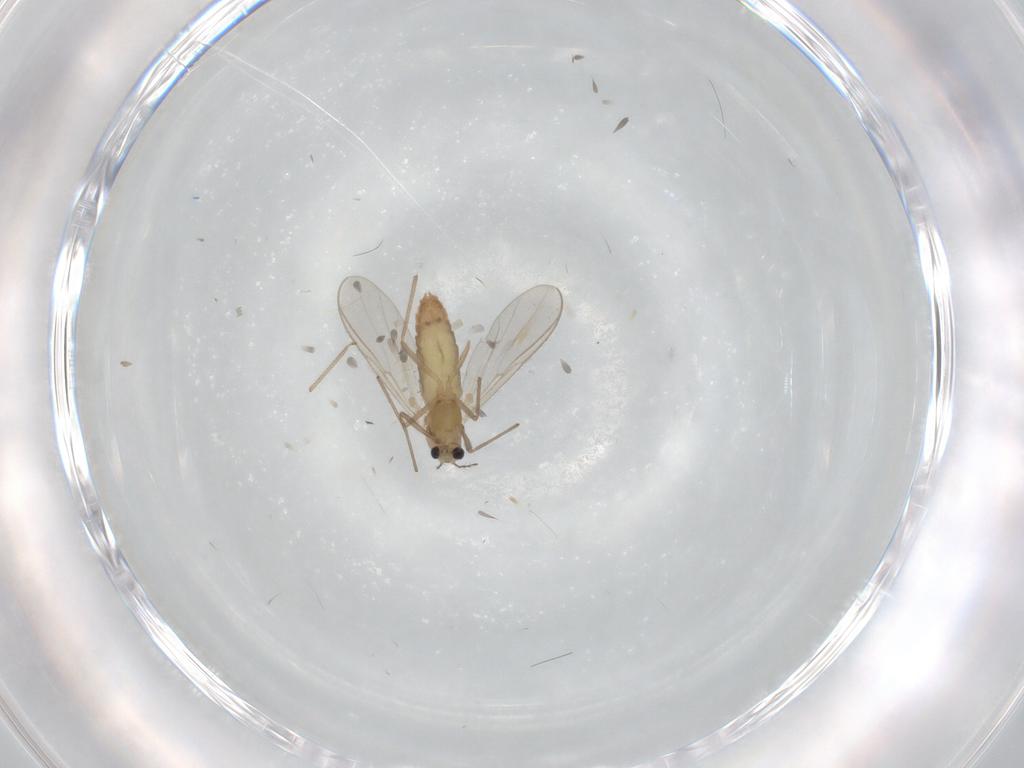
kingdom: Animalia
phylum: Arthropoda
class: Insecta
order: Diptera
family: Chironomidae
